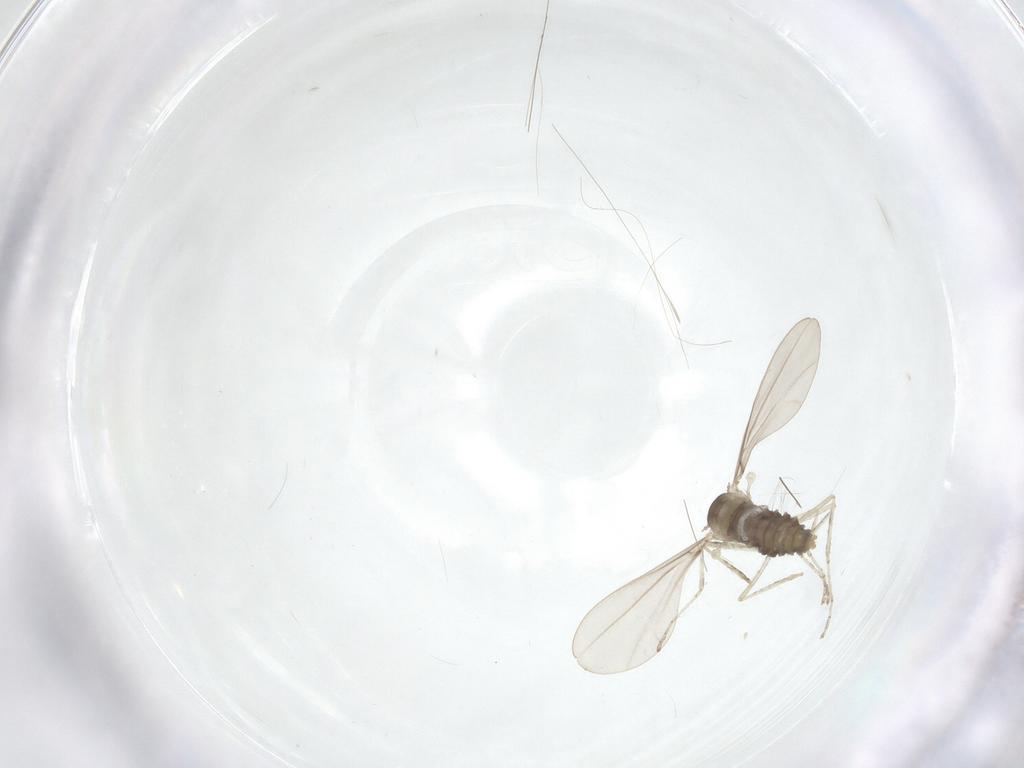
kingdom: Animalia
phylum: Arthropoda
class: Insecta
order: Diptera
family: Cecidomyiidae
